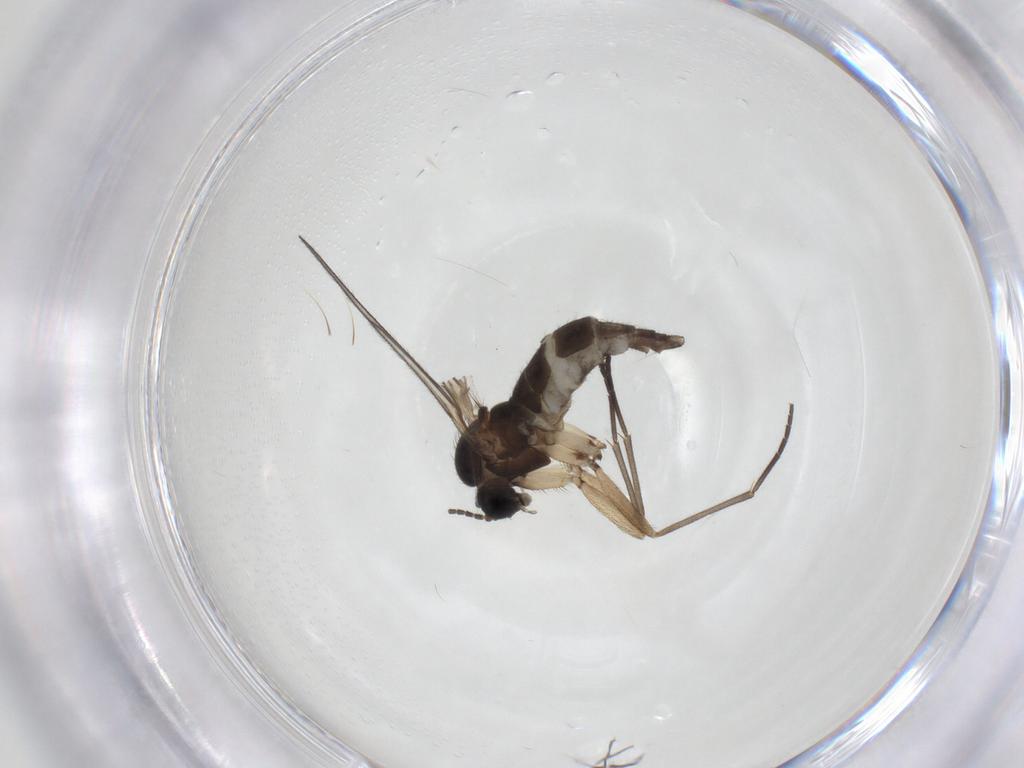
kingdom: Animalia
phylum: Arthropoda
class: Insecta
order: Diptera
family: Sciaridae
